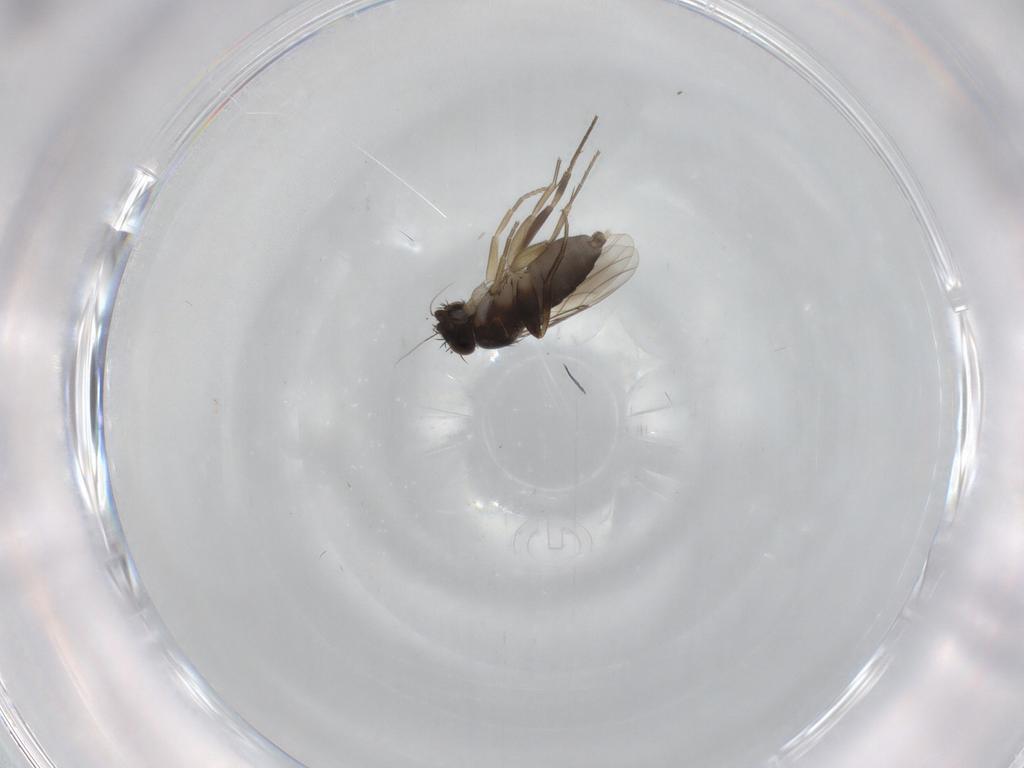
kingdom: Animalia
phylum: Arthropoda
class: Insecta
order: Diptera
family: Phoridae
